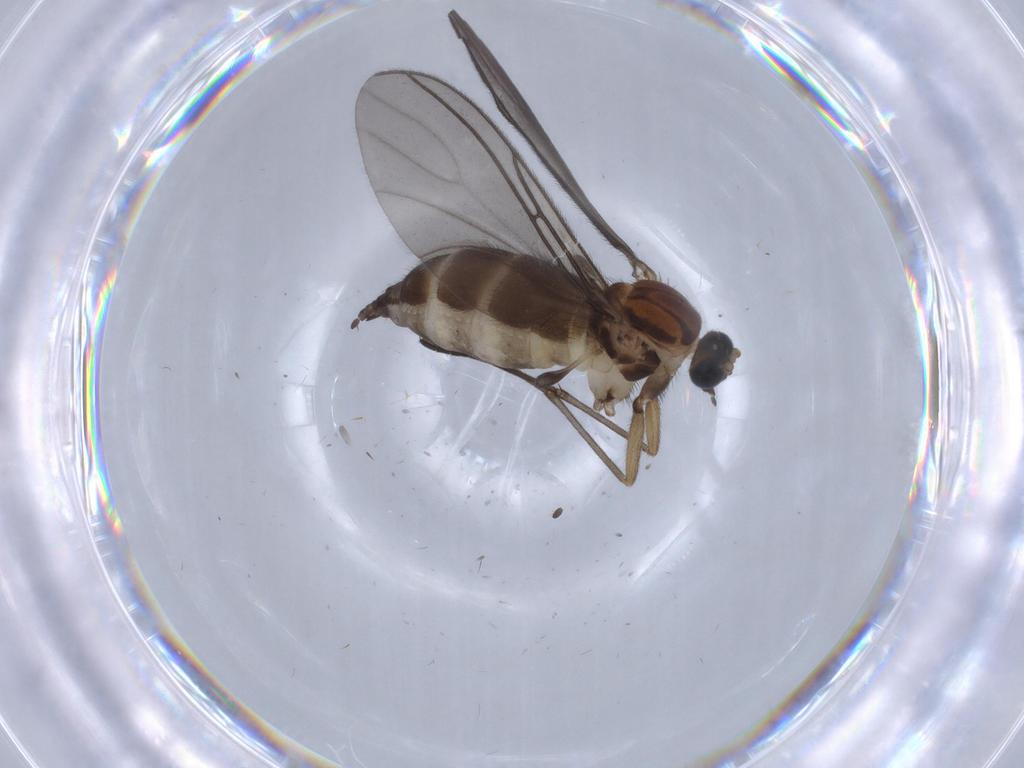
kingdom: Animalia
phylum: Arthropoda
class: Insecta
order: Diptera
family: Sciaridae
